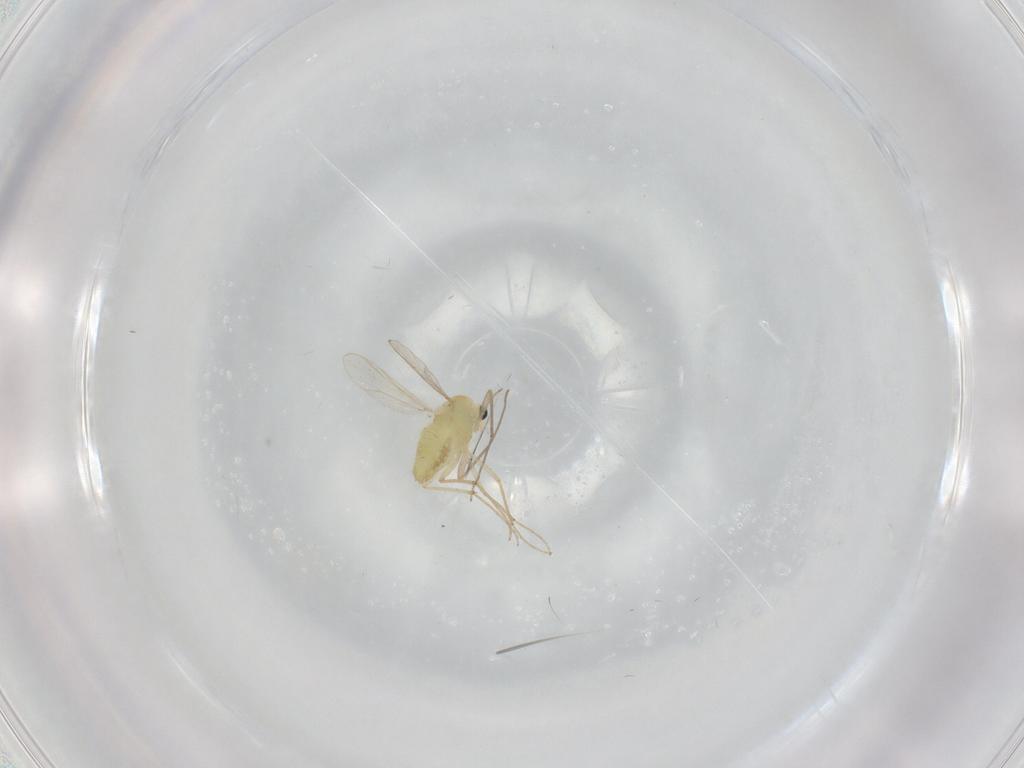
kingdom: Animalia
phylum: Arthropoda
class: Insecta
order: Diptera
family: Chironomidae
